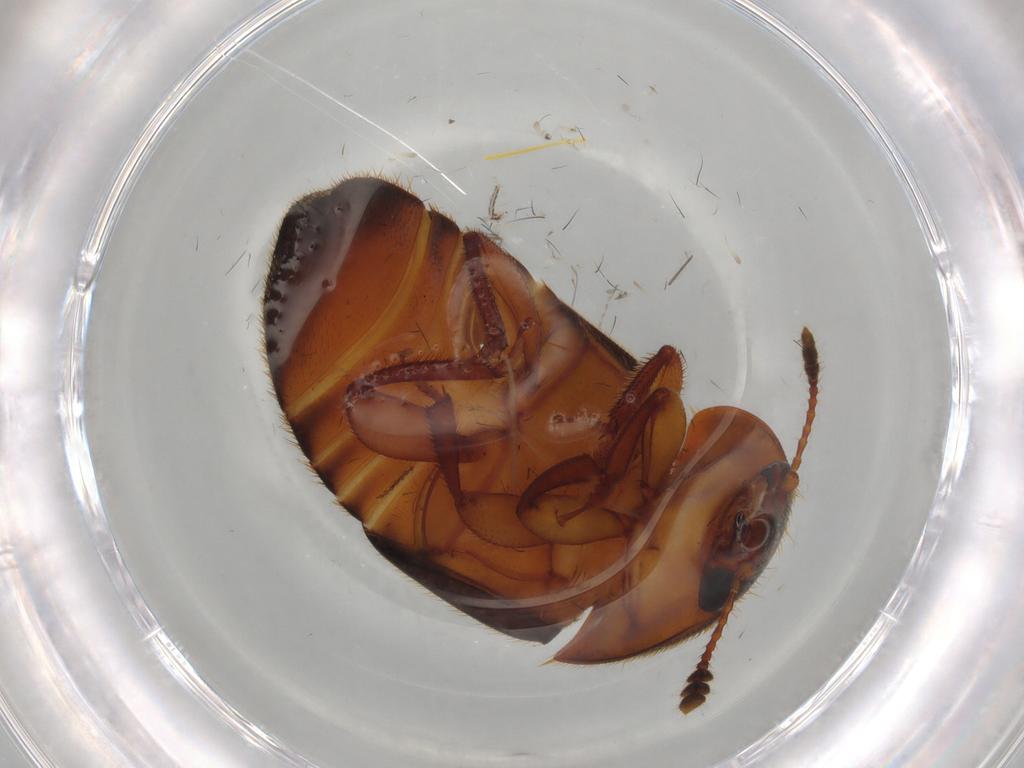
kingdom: Animalia
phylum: Arthropoda
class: Insecta
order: Coleoptera
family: Nitidulidae
